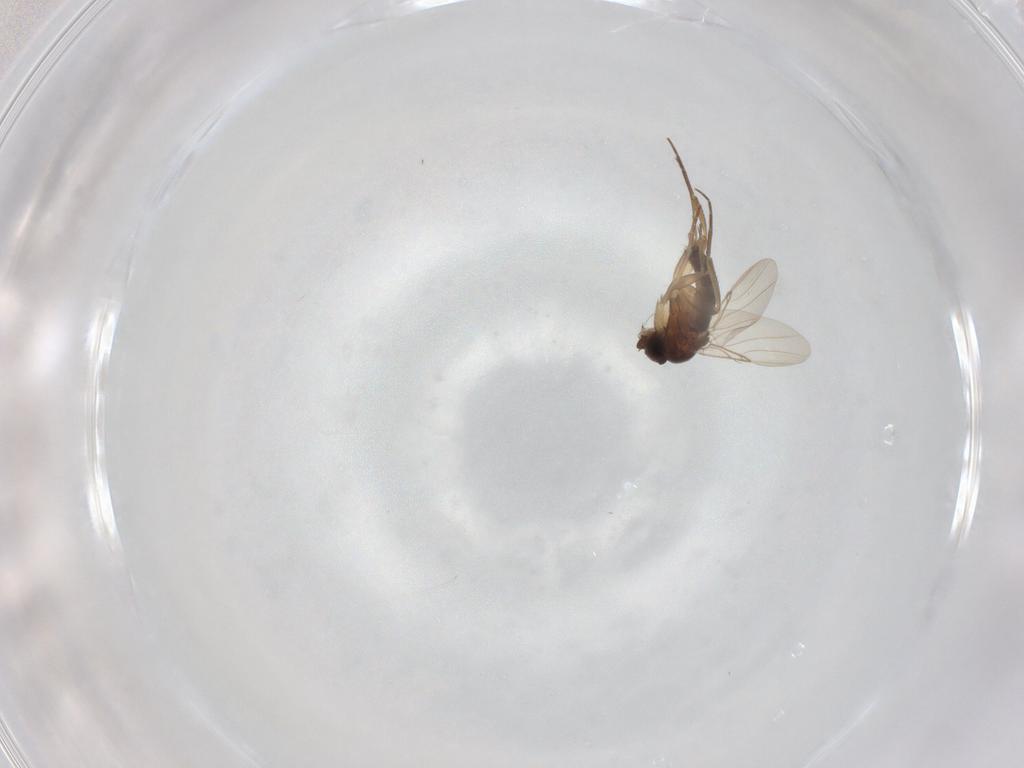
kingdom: Animalia
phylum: Arthropoda
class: Insecta
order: Diptera
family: Phoridae
